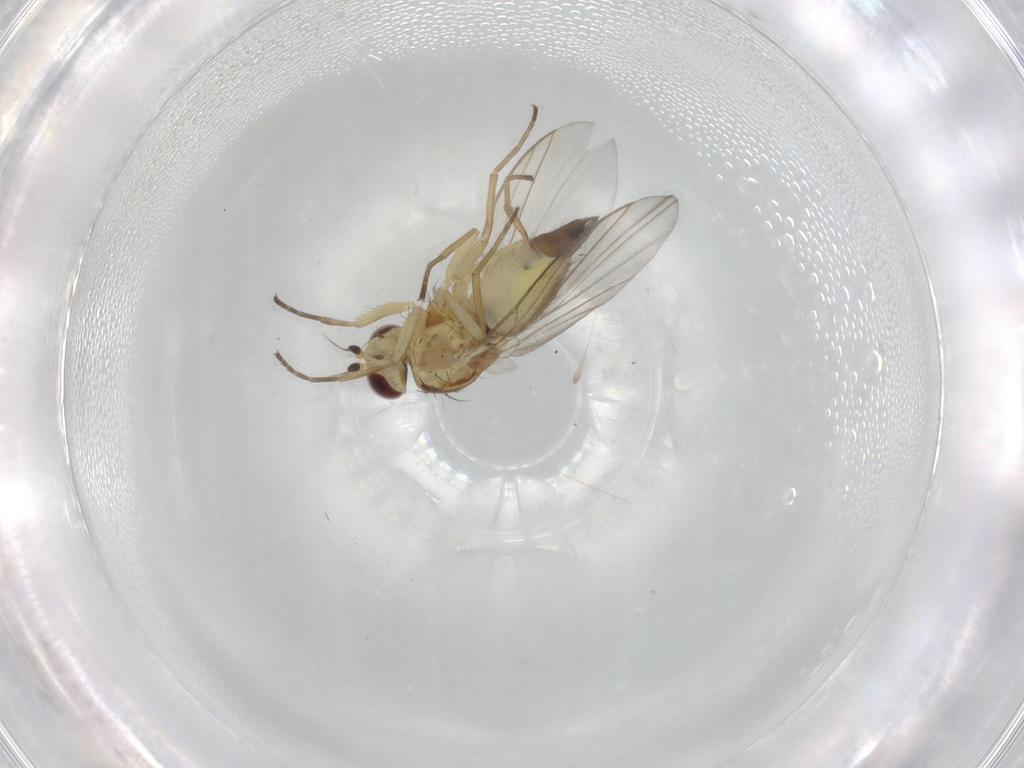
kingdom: Animalia
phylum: Arthropoda
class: Insecta
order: Diptera
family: Agromyzidae
